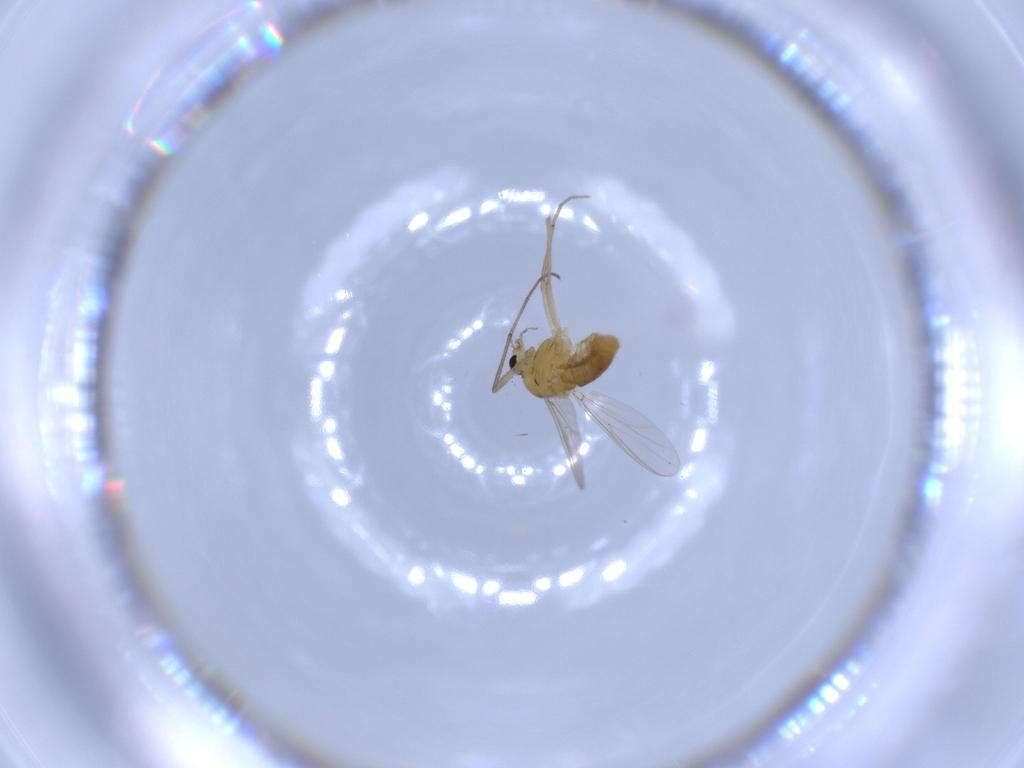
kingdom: Animalia
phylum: Arthropoda
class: Insecta
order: Diptera
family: Chironomidae
